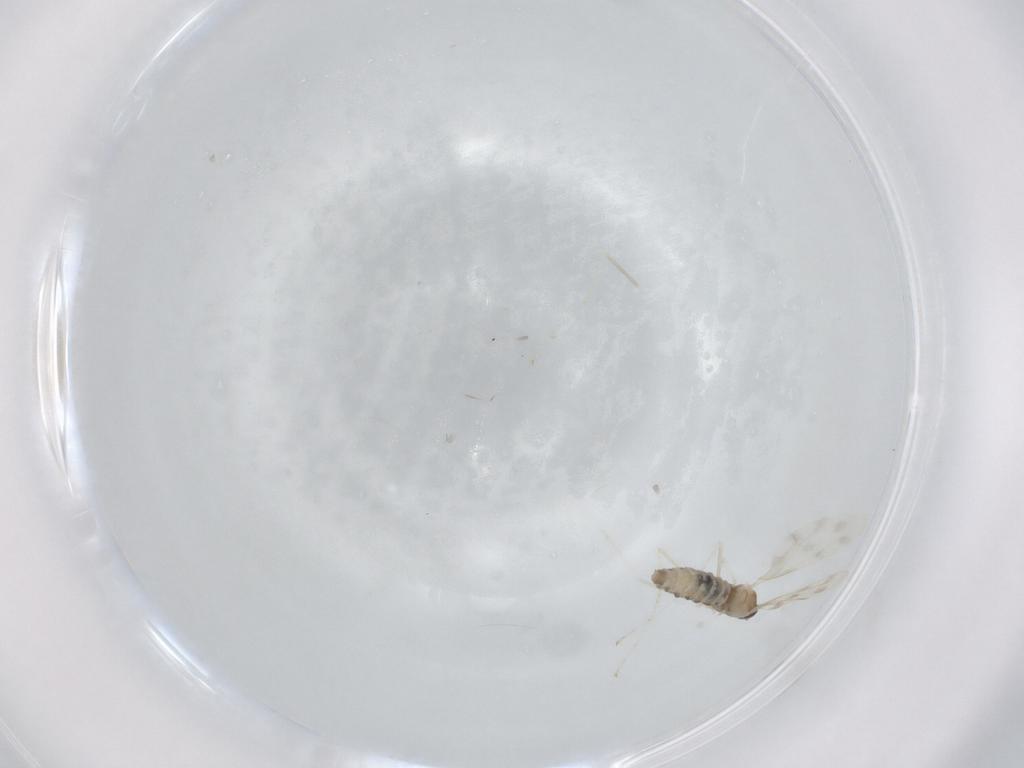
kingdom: Animalia
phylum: Arthropoda
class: Insecta
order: Diptera
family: Cecidomyiidae
